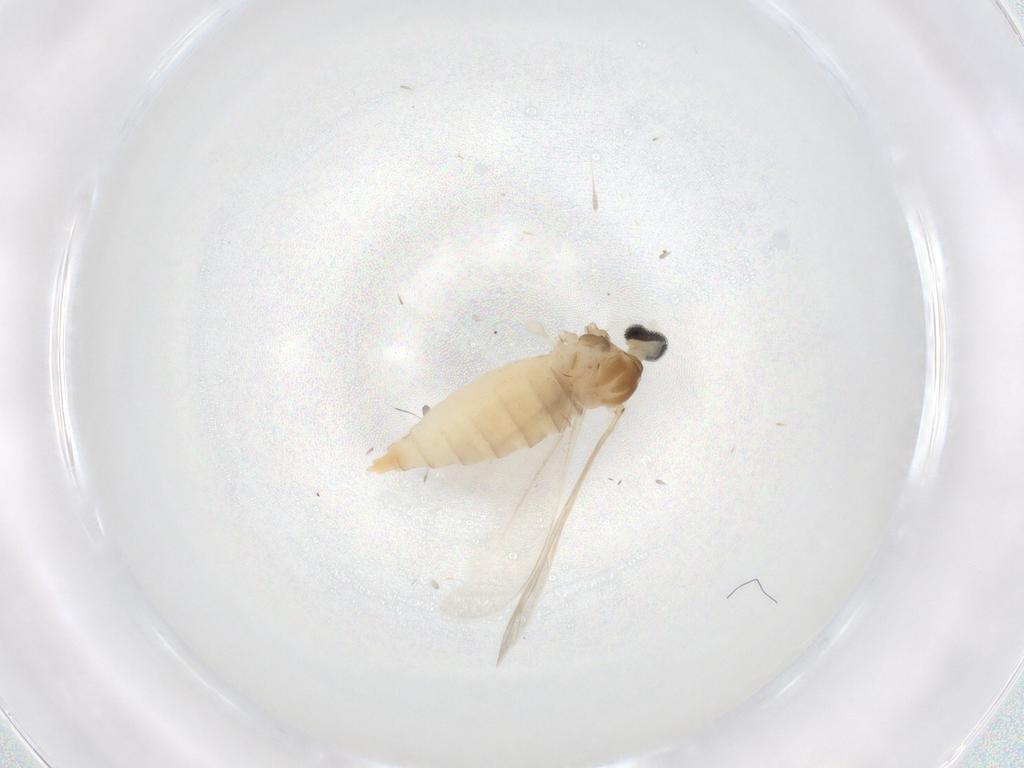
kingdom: Animalia
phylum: Arthropoda
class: Insecta
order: Diptera
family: Cecidomyiidae
